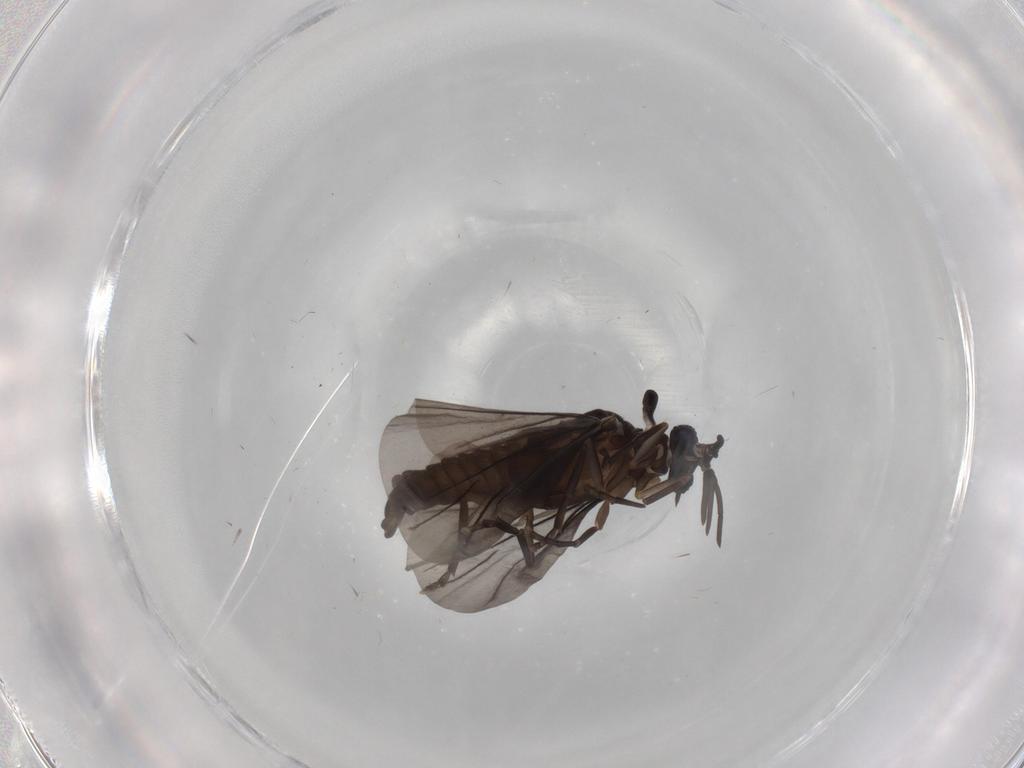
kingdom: Animalia
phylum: Arthropoda
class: Insecta
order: Strepsiptera
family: Corioxenidae
